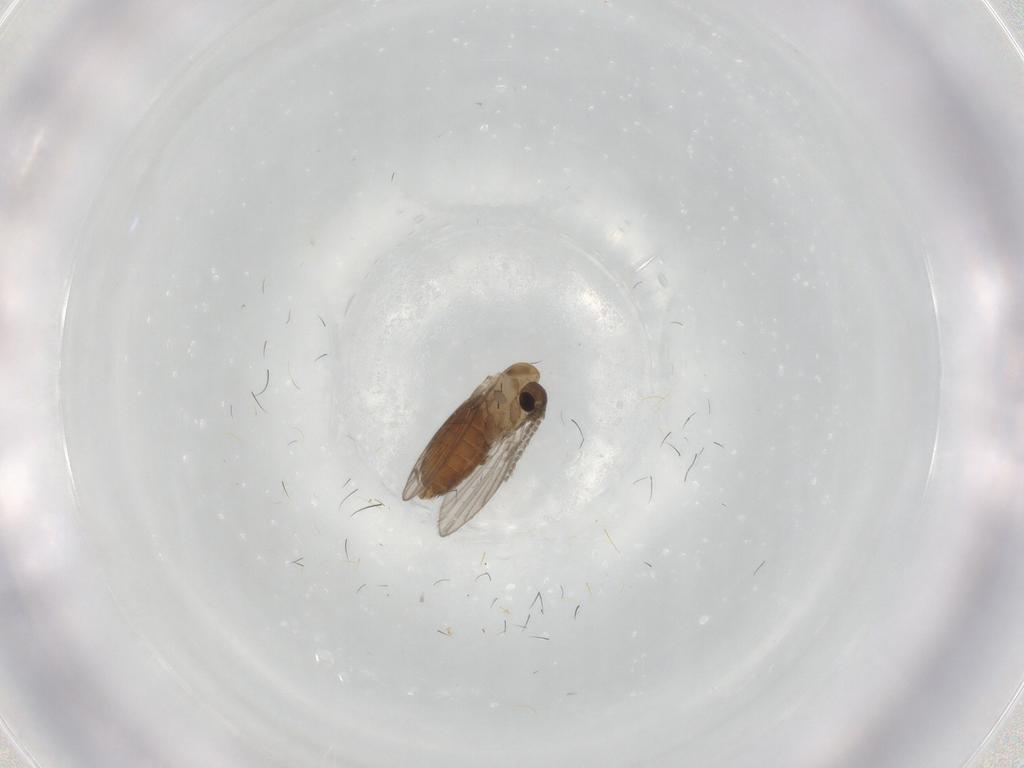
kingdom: Animalia
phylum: Arthropoda
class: Insecta
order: Diptera
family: Tabanidae
